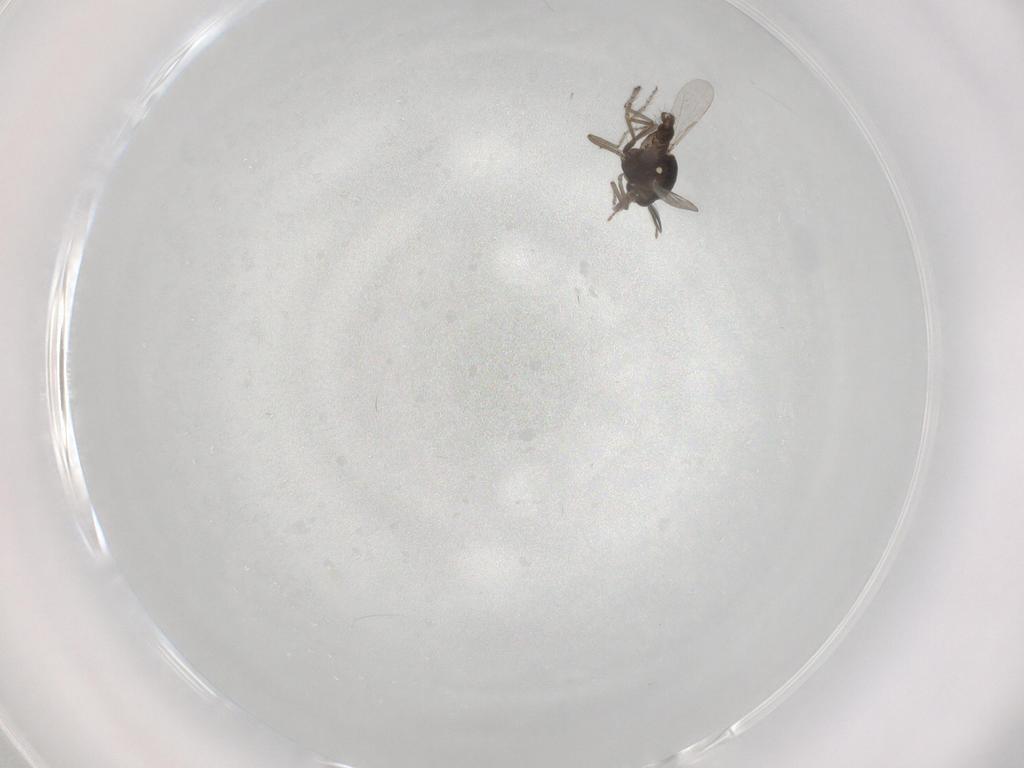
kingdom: Animalia
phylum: Arthropoda
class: Insecta
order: Diptera
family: Ceratopogonidae
